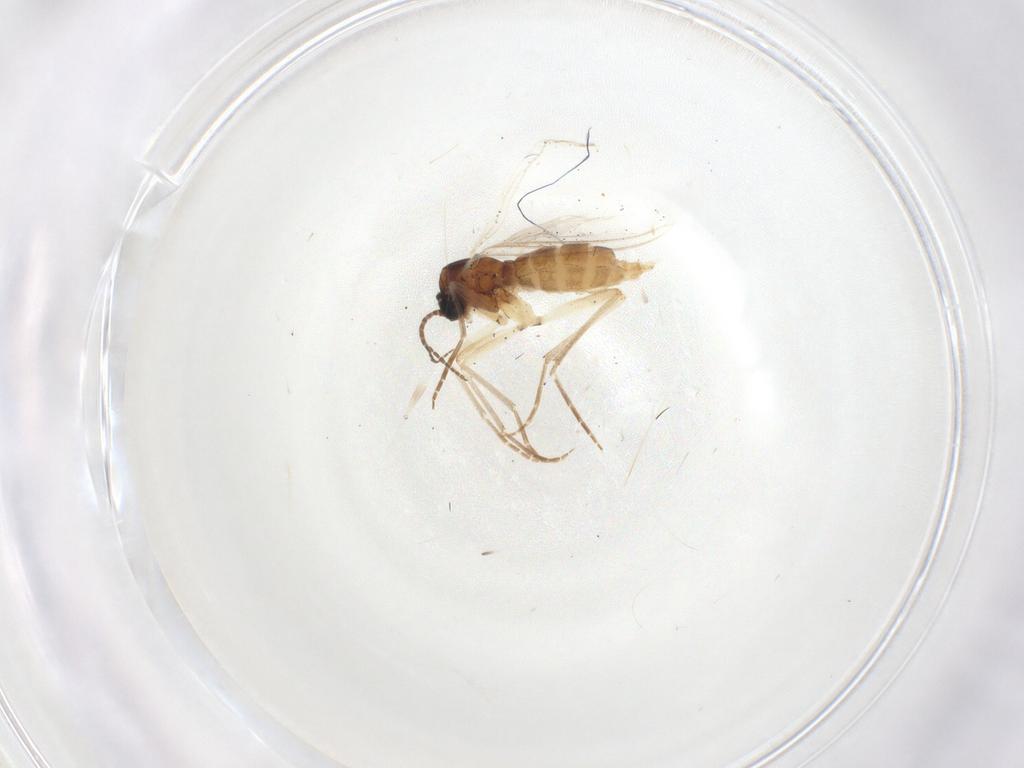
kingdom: Animalia
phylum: Arthropoda
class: Insecta
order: Diptera
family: Sciaridae
